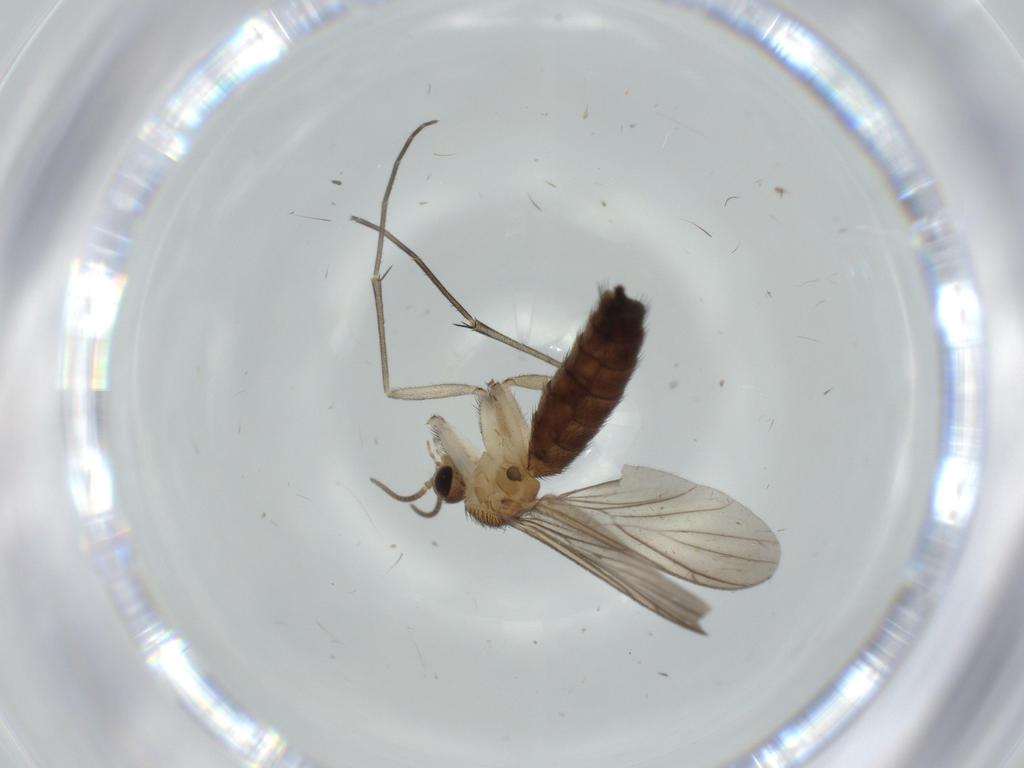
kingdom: Animalia
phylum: Arthropoda
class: Insecta
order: Diptera
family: Keroplatidae
